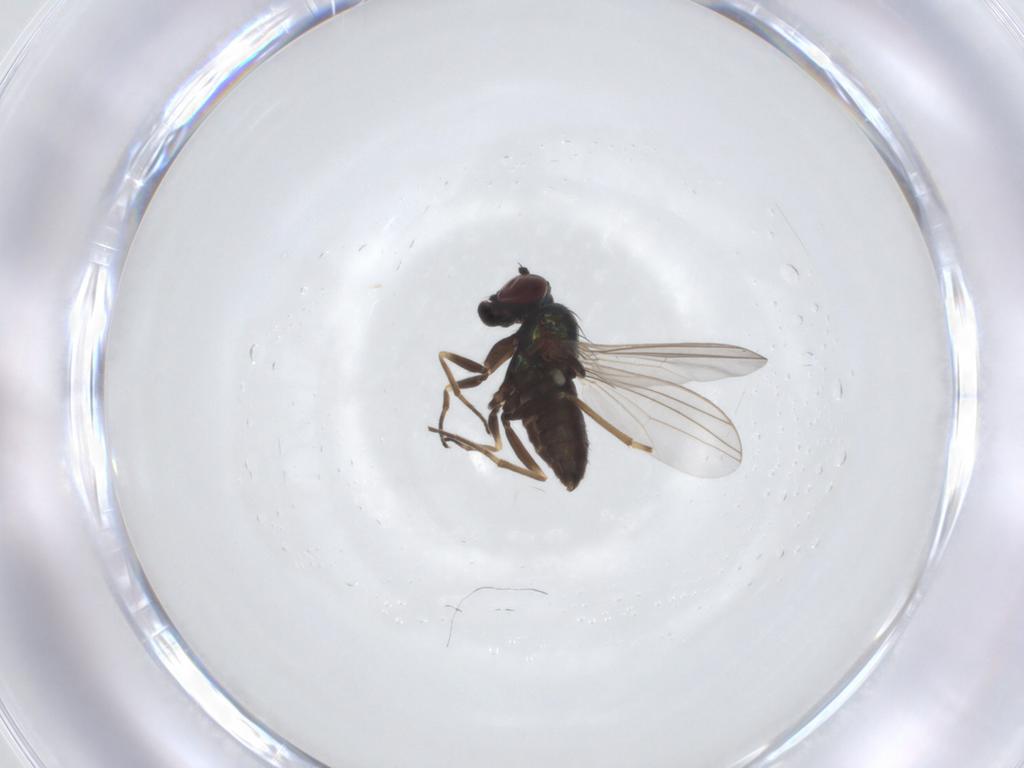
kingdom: Animalia
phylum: Arthropoda
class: Insecta
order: Diptera
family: Dolichopodidae
